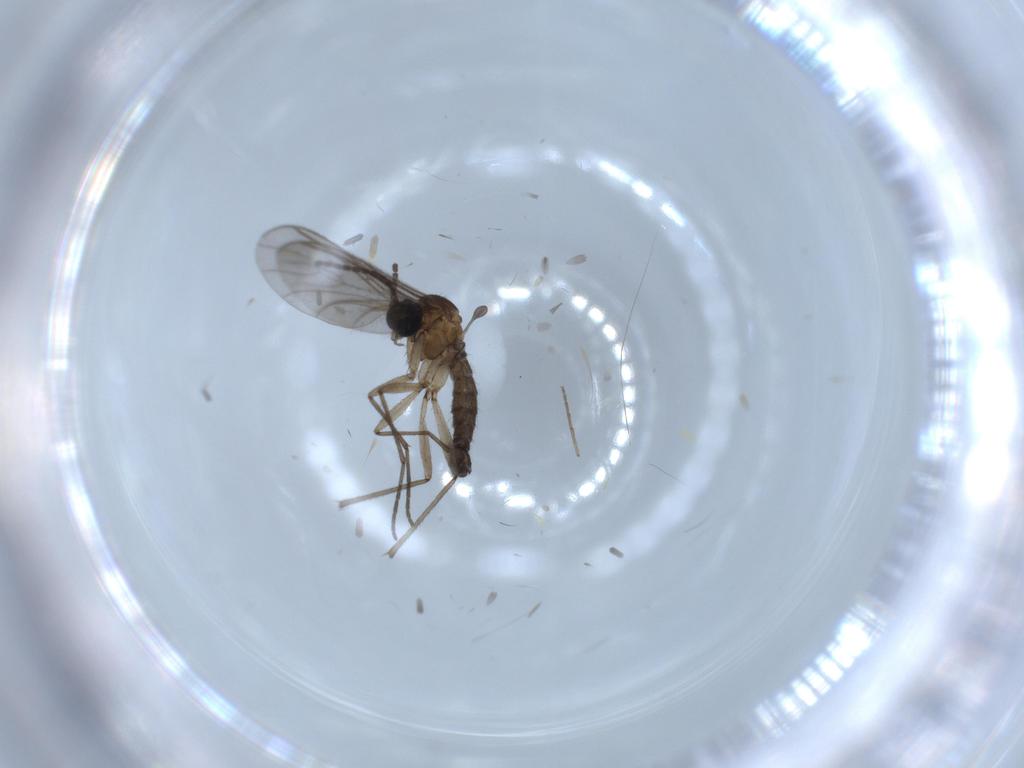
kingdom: Animalia
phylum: Arthropoda
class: Insecta
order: Diptera
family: Sciaridae
